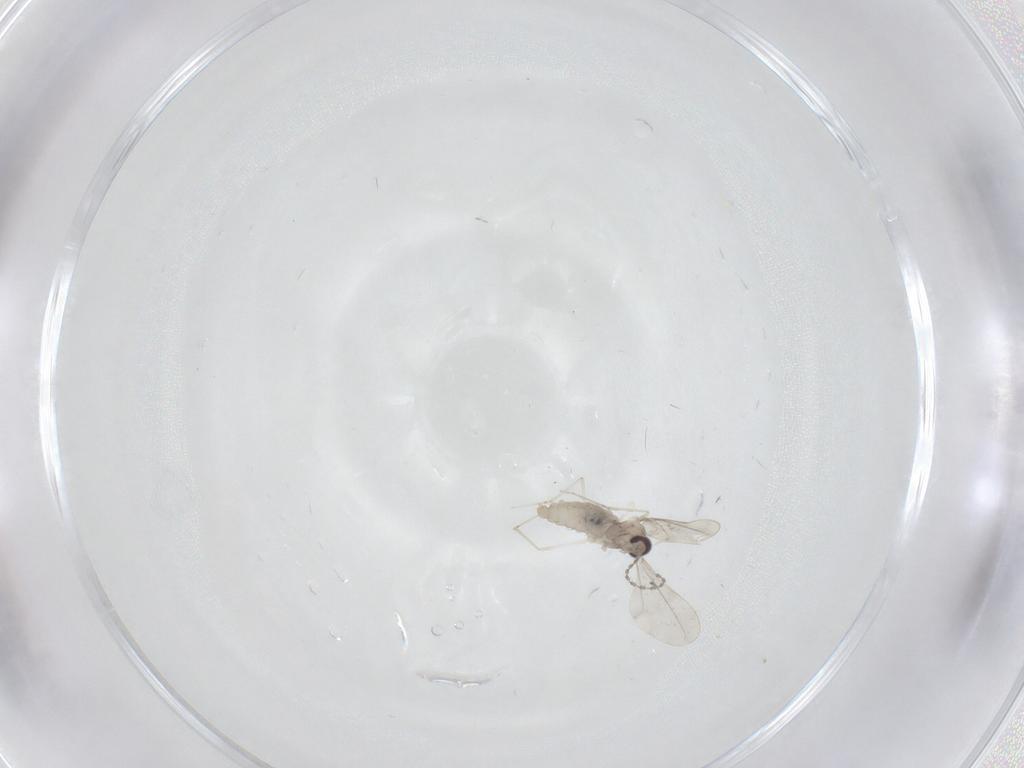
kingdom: Animalia
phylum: Arthropoda
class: Insecta
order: Diptera
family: Cecidomyiidae
